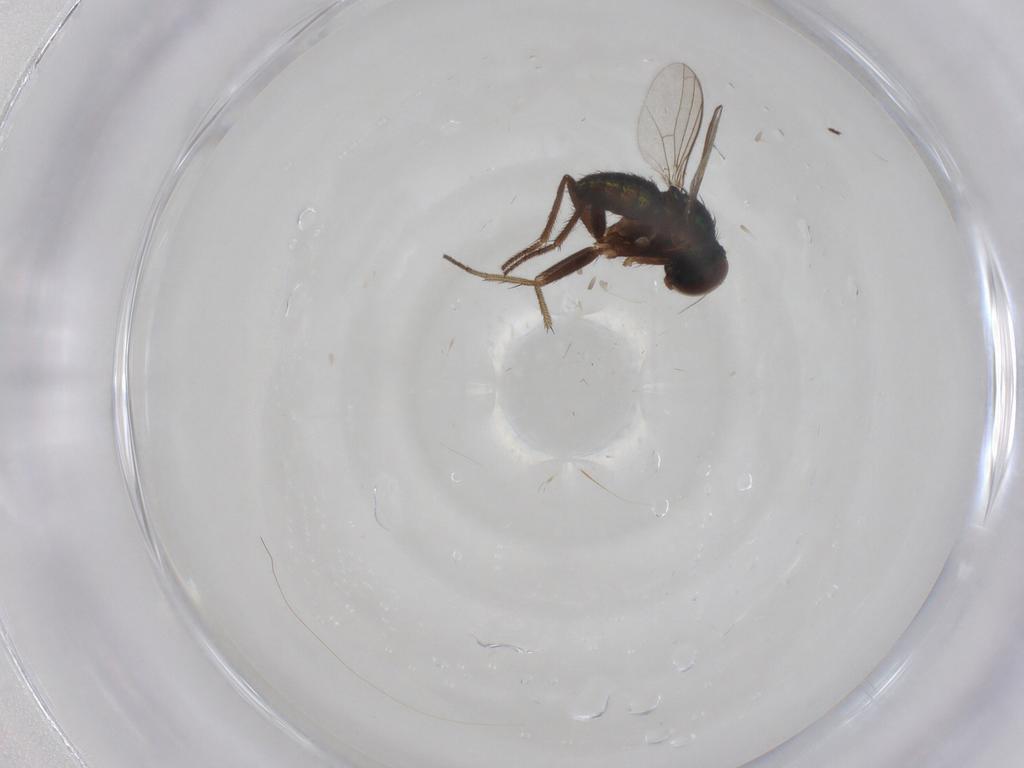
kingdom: Animalia
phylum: Arthropoda
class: Insecta
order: Diptera
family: Dolichopodidae
